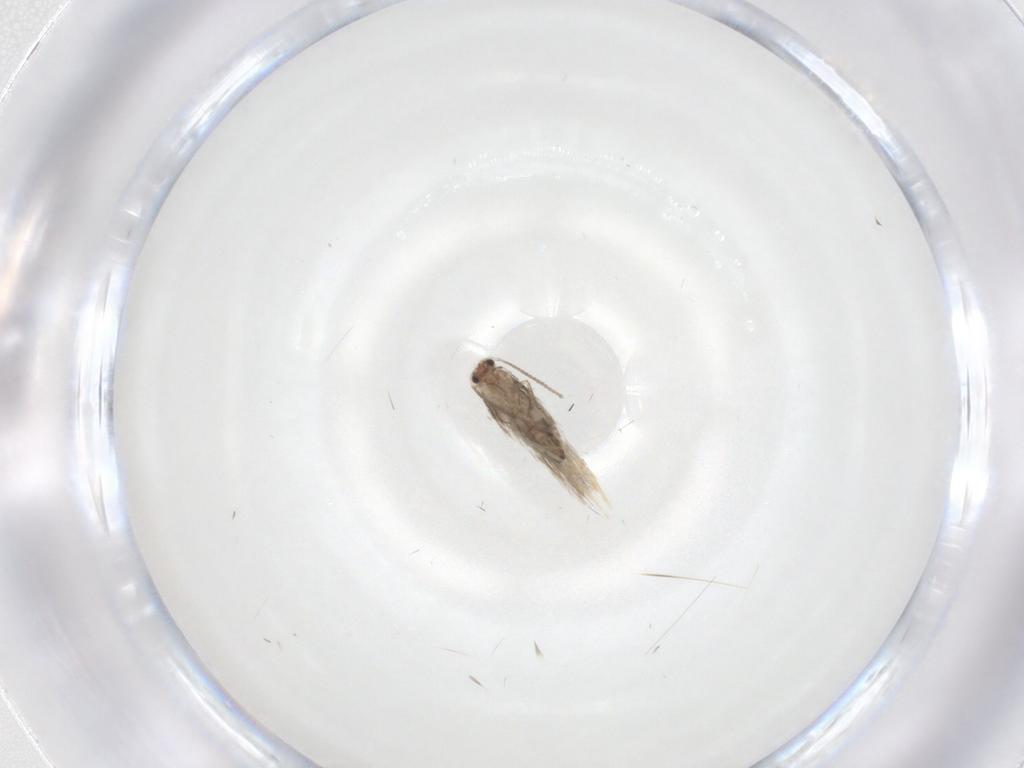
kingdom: Animalia
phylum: Arthropoda
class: Insecta
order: Lepidoptera
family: Nepticulidae
